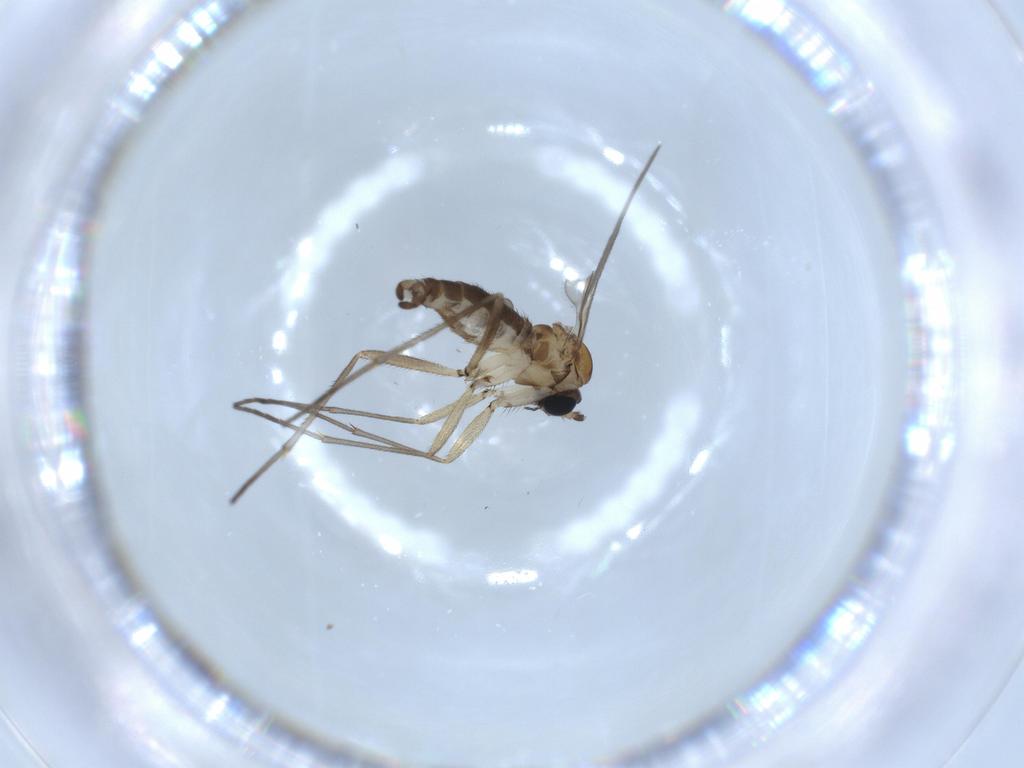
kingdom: Animalia
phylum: Arthropoda
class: Insecta
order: Diptera
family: Sciaridae
